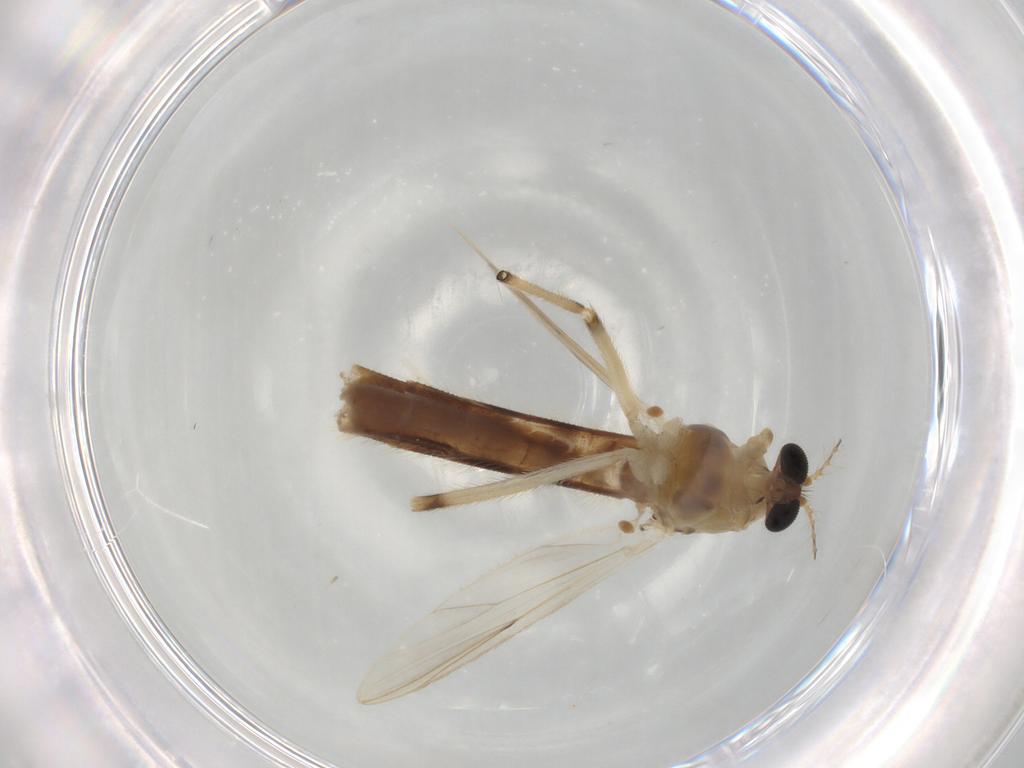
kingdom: Animalia
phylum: Arthropoda
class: Insecta
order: Diptera
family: Chironomidae
